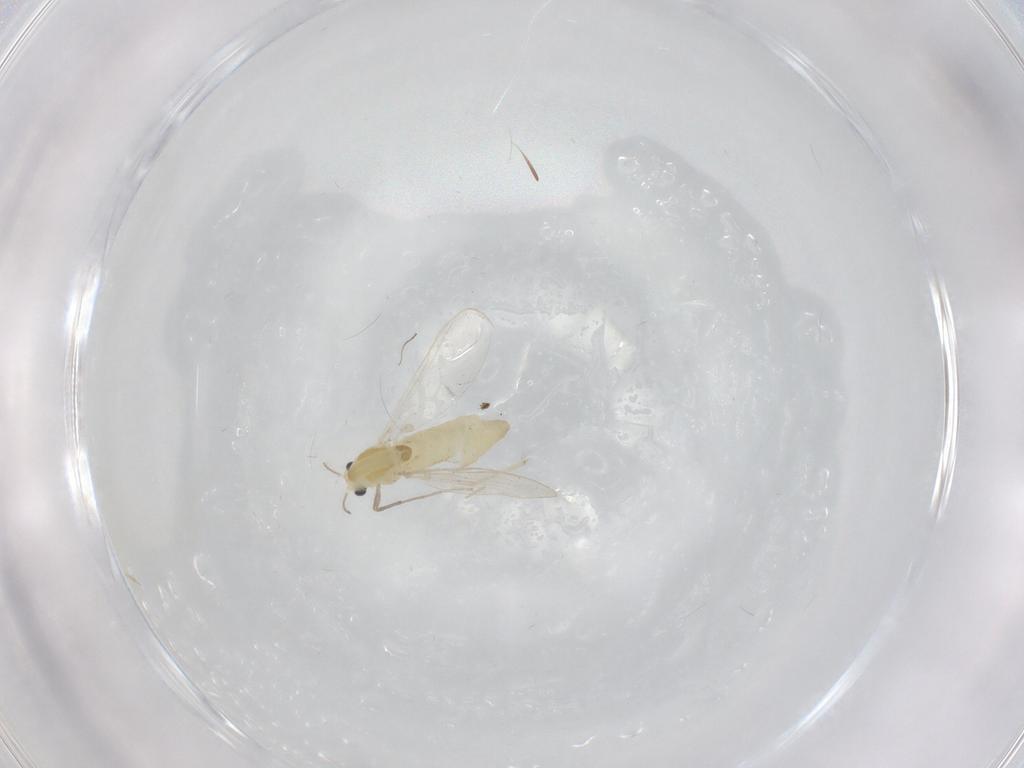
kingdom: Animalia
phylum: Arthropoda
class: Insecta
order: Diptera
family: Chironomidae
